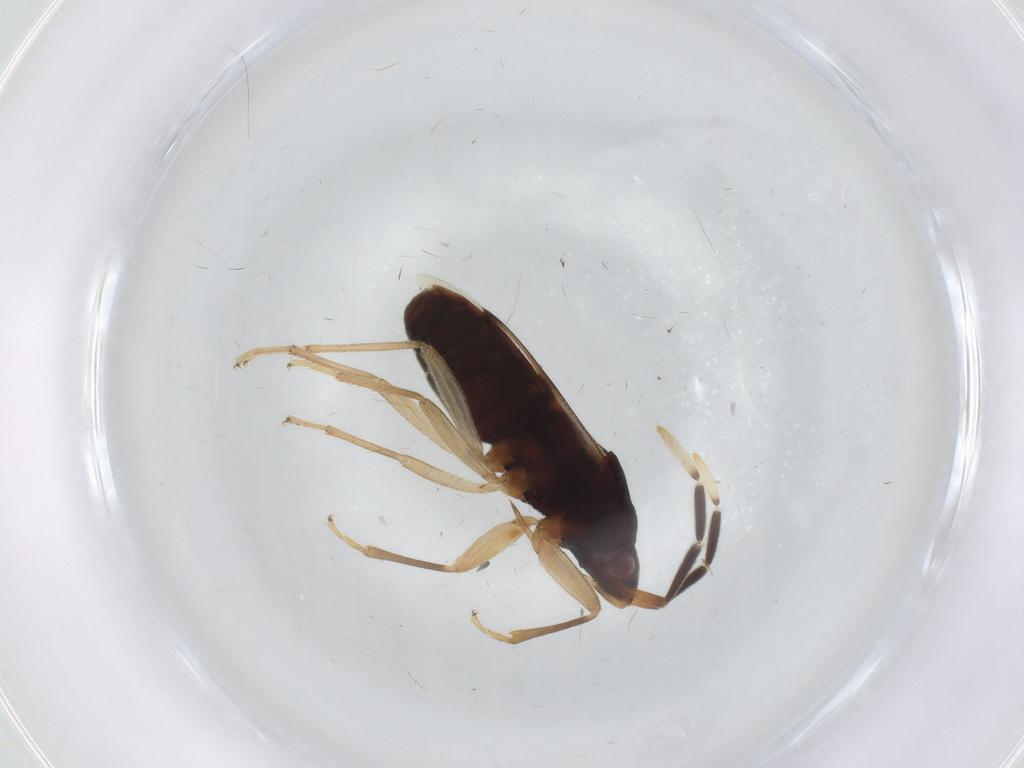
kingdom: Animalia
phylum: Arthropoda
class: Insecta
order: Hemiptera
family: Rhyparochromidae
